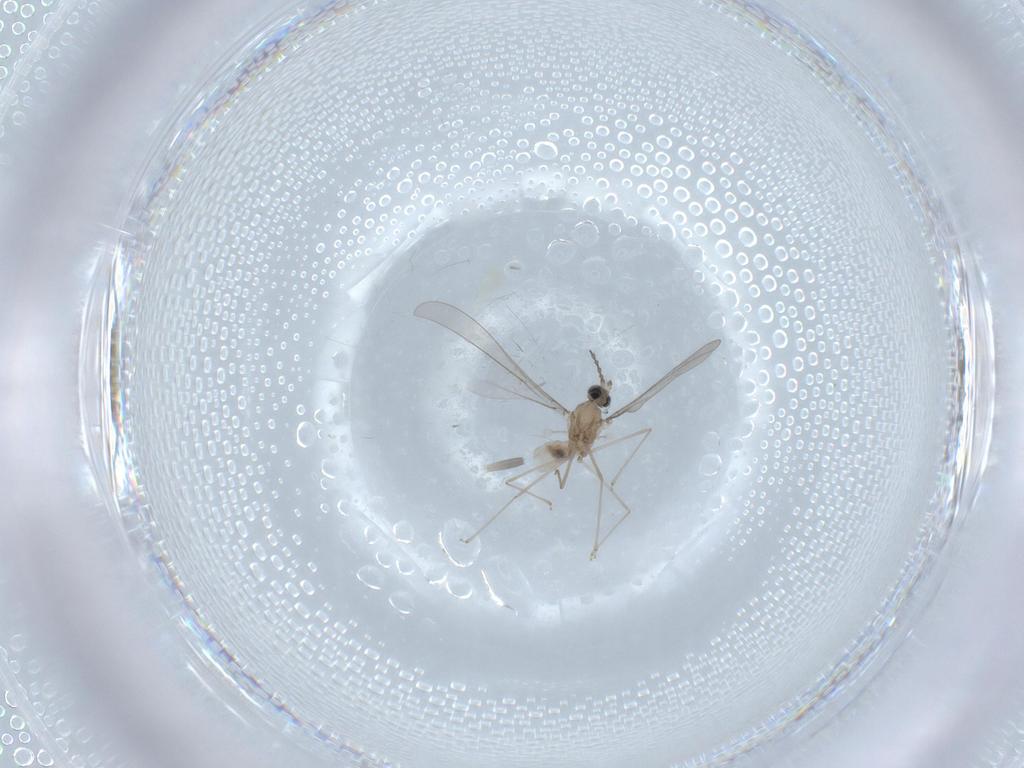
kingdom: Animalia
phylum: Arthropoda
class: Insecta
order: Diptera
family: Cecidomyiidae
